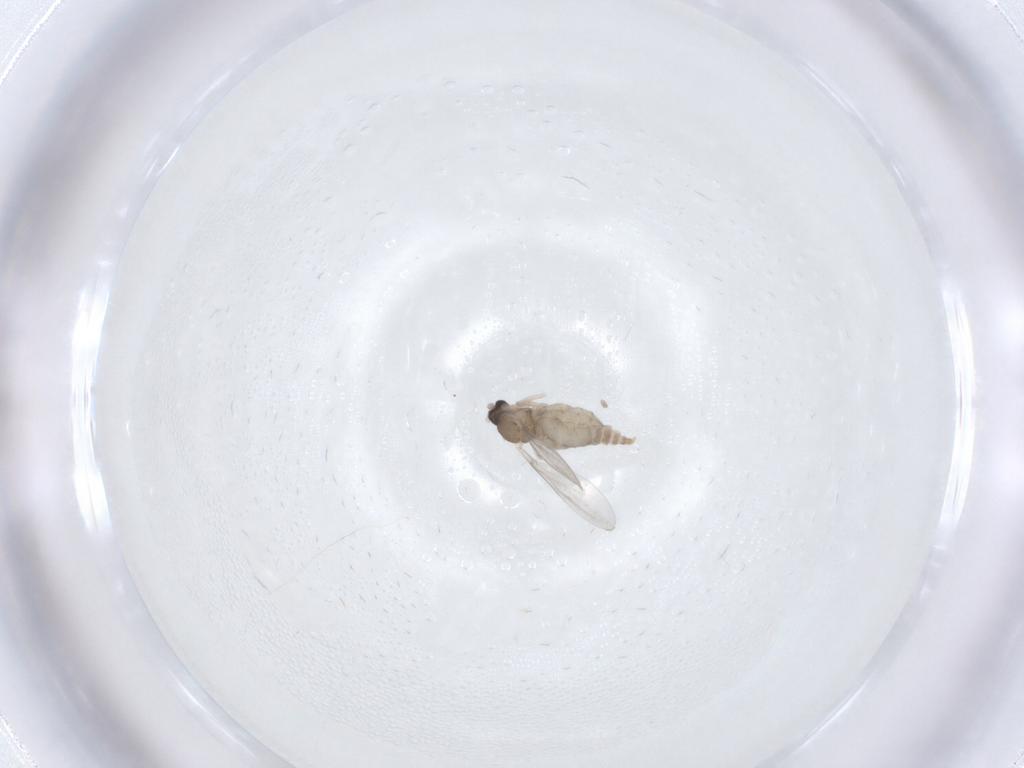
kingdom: Animalia
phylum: Arthropoda
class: Insecta
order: Diptera
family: Cecidomyiidae
